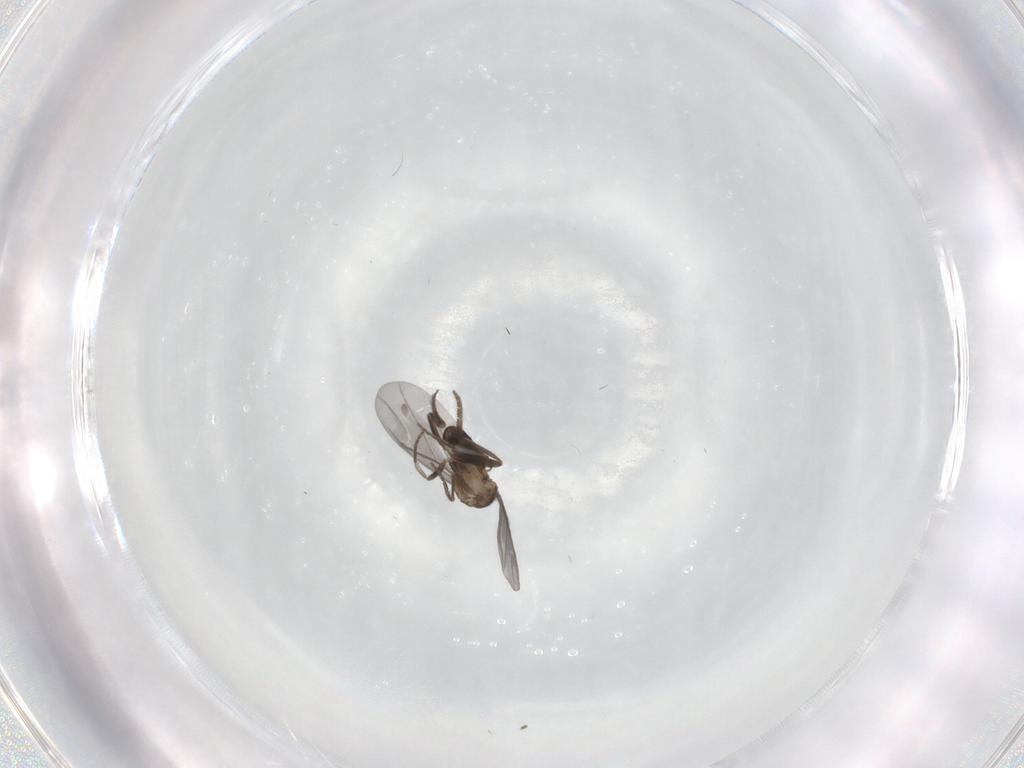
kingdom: Animalia
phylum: Arthropoda
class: Insecta
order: Diptera
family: Phoridae
